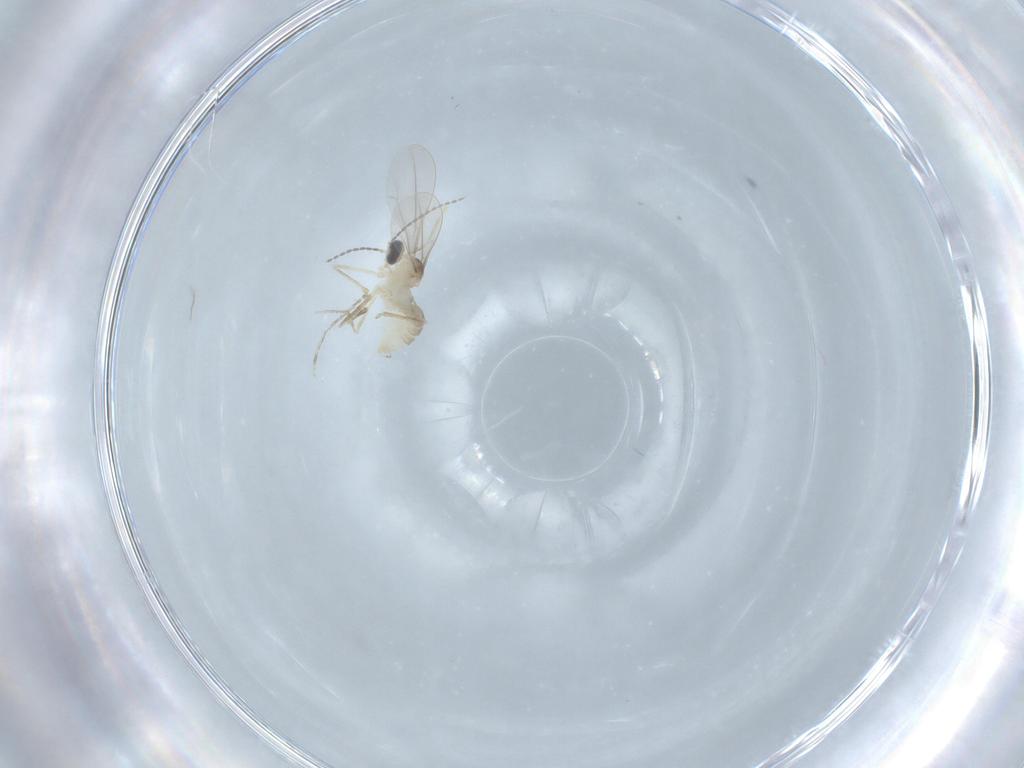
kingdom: Animalia
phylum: Arthropoda
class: Insecta
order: Diptera
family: Cecidomyiidae
